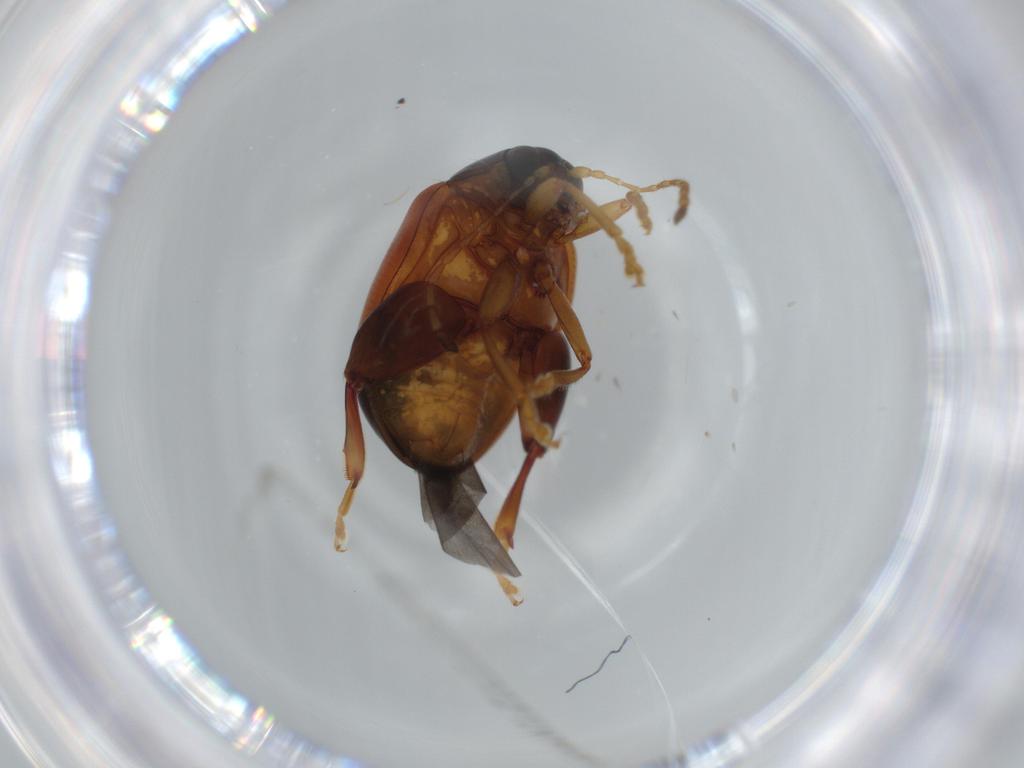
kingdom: Animalia
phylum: Arthropoda
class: Insecta
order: Coleoptera
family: Chrysomelidae
